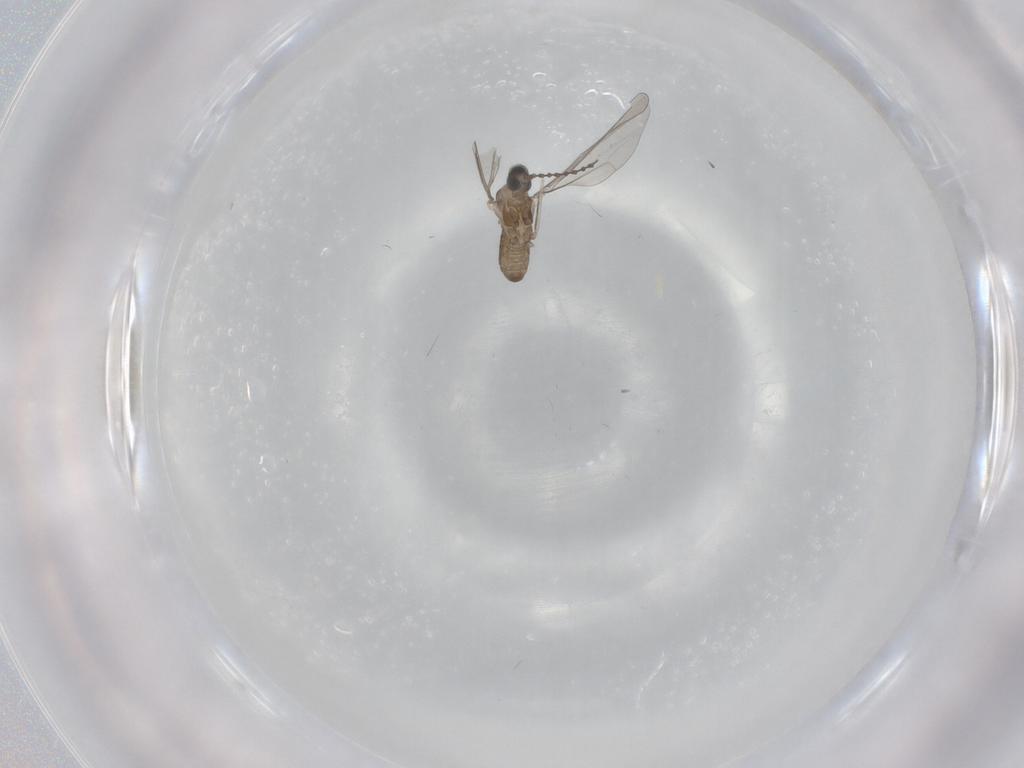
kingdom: Animalia
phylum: Arthropoda
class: Insecta
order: Diptera
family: Cecidomyiidae
